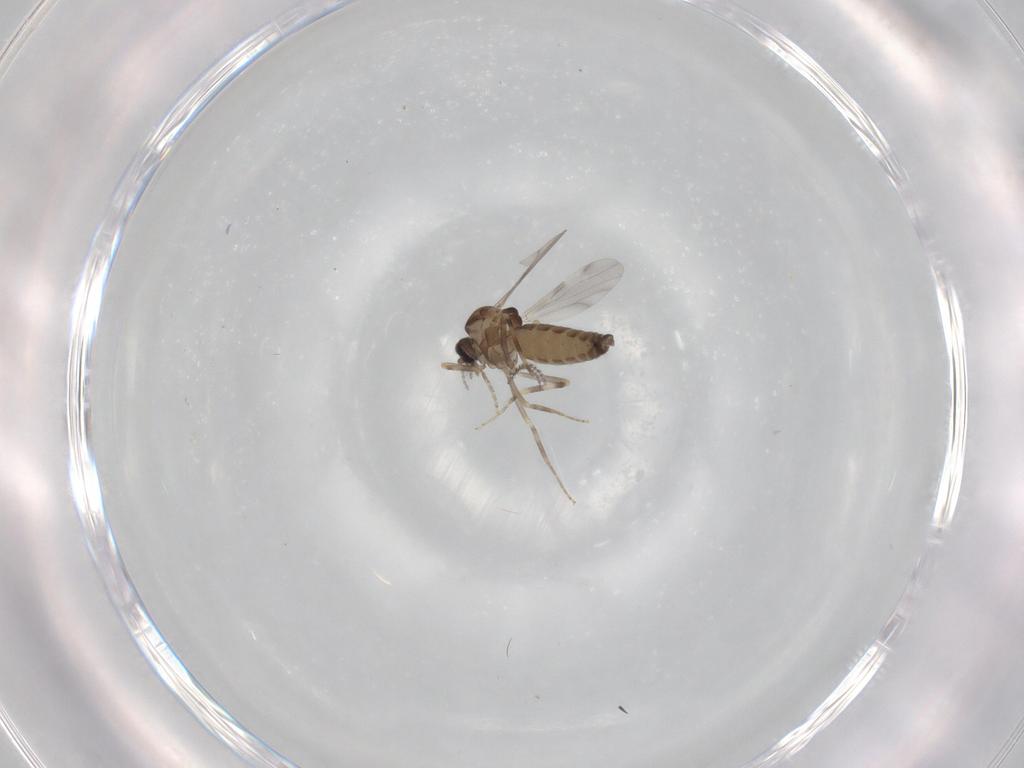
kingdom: Animalia
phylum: Arthropoda
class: Insecta
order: Diptera
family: Ceratopogonidae
